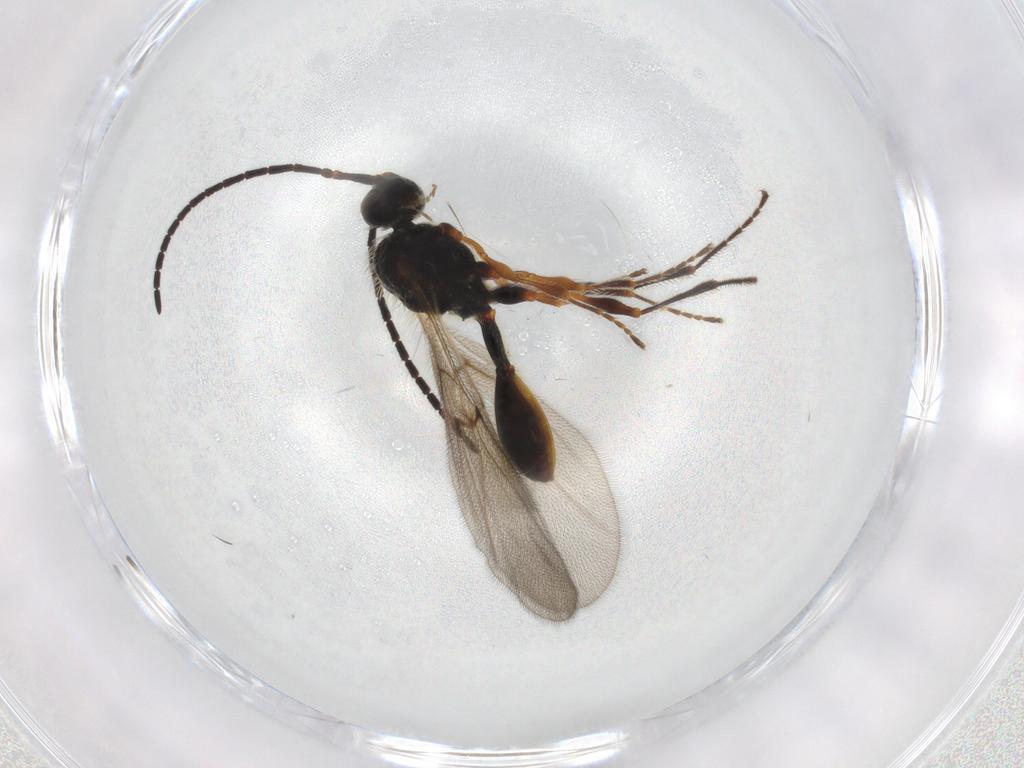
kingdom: Animalia
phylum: Arthropoda
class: Insecta
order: Hymenoptera
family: Diapriidae
